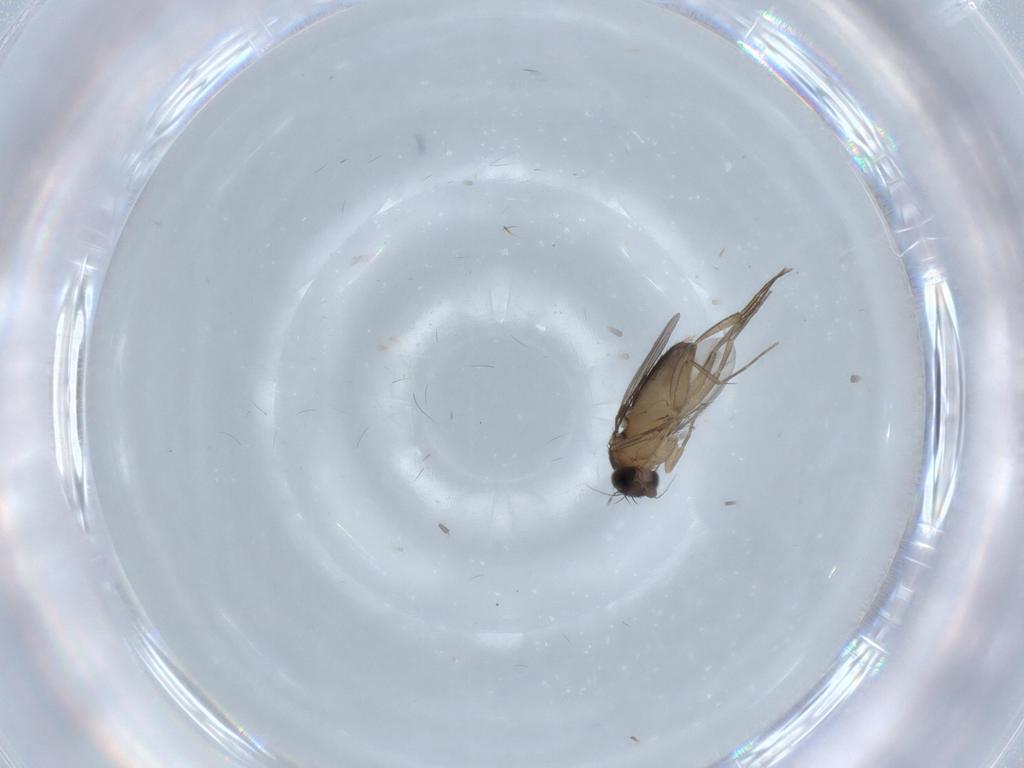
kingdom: Animalia
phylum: Arthropoda
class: Insecta
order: Diptera
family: Phoridae
